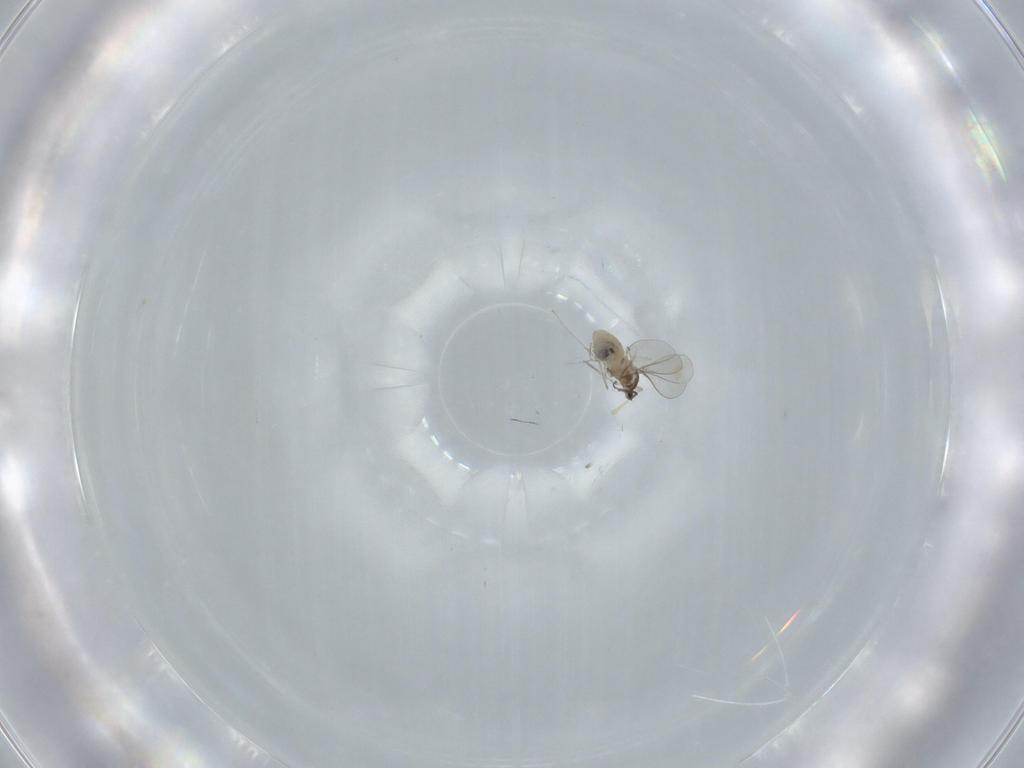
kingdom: Animalia
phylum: Arthropoda
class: Insecta
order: Diptera
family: Cecidomyiidae
